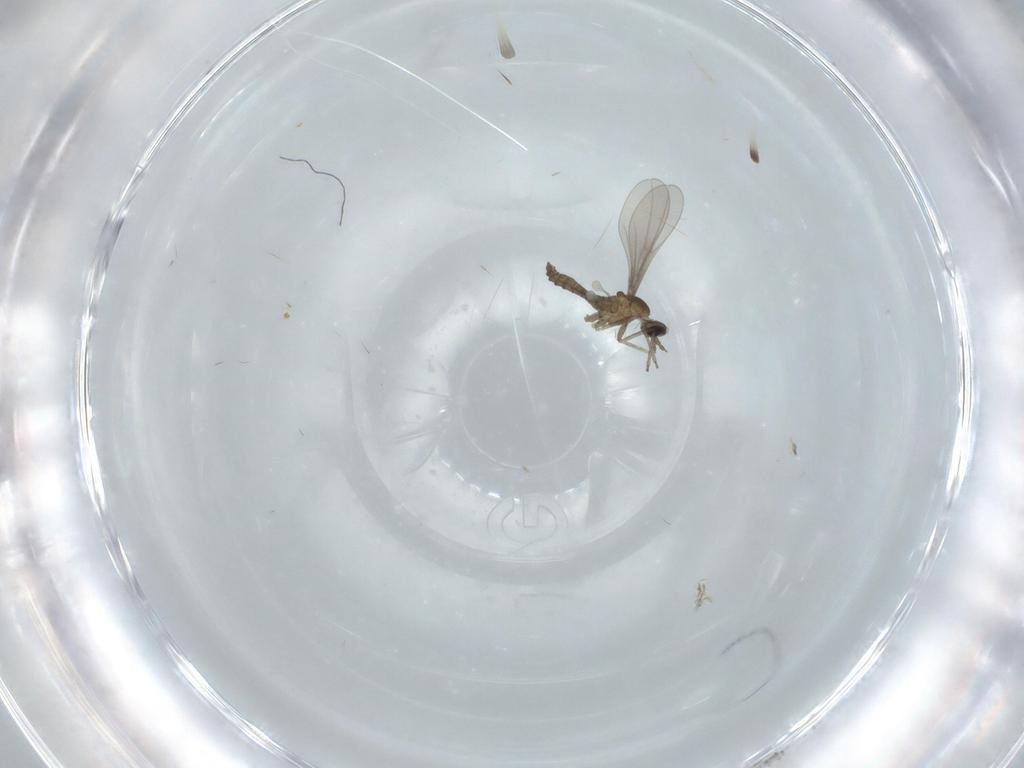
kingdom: Animalia
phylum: Arthropoda
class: Insecta
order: Diptera
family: Cecidomyiidae
